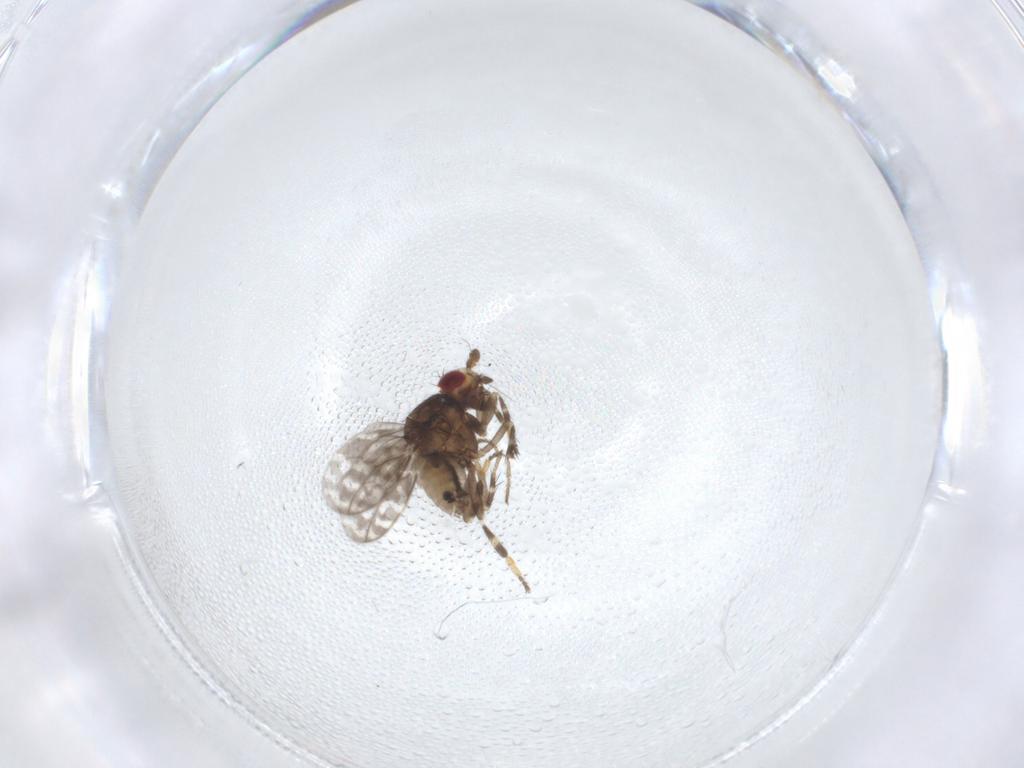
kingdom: Animalia
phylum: Arthropoda
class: Insecta
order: Diptera
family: Sphaeroceridae
